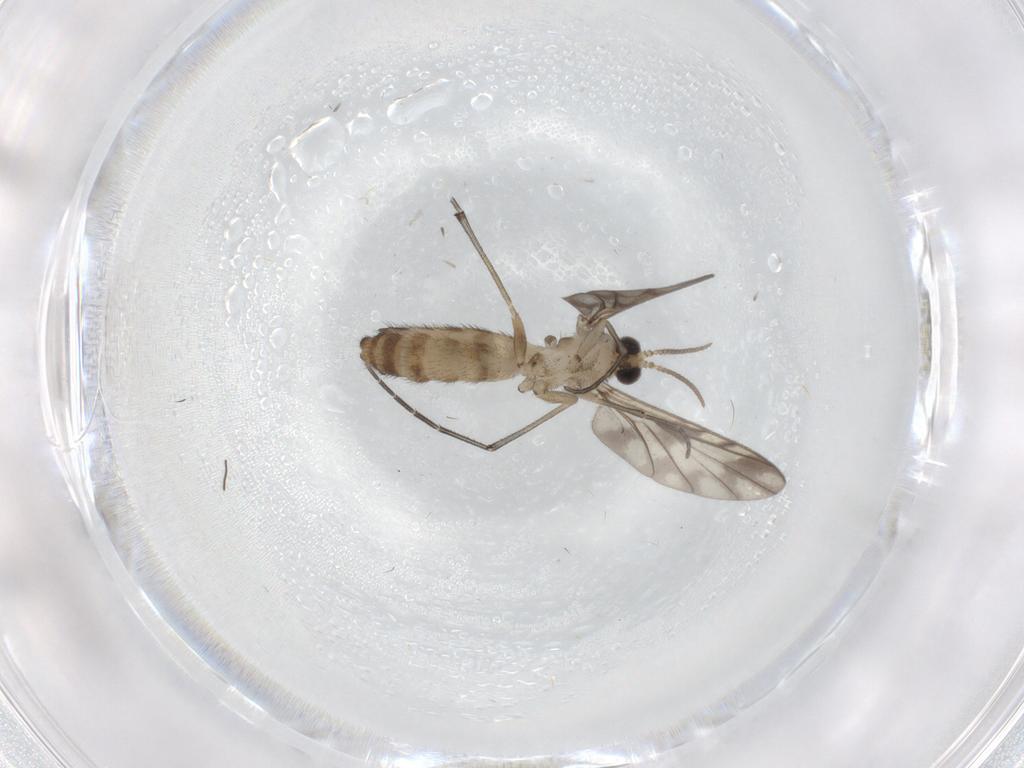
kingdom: Animalia
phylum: Arthropoda
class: Insecta
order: Diptera
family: Keroplatidae
